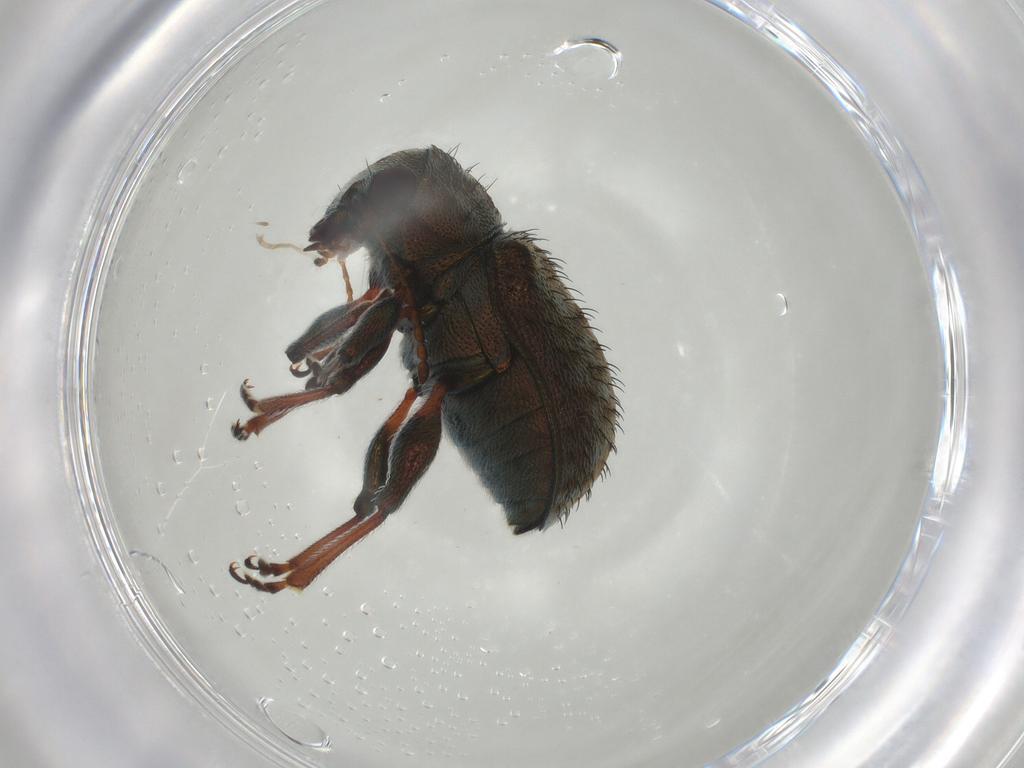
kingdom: Animalia
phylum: Arthropoda
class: Insecta
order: Coleoptera
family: Chrysomelidae
